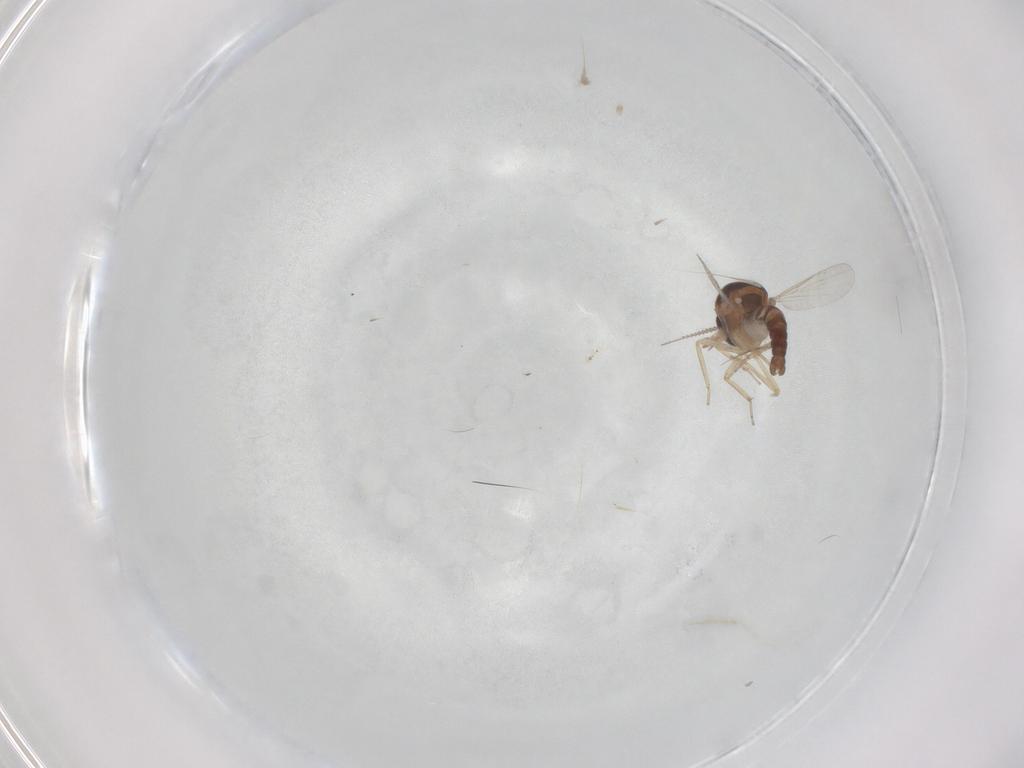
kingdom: Animalia
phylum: Arthropoda
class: Insecta
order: Diptera
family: Ceratopogonidae
